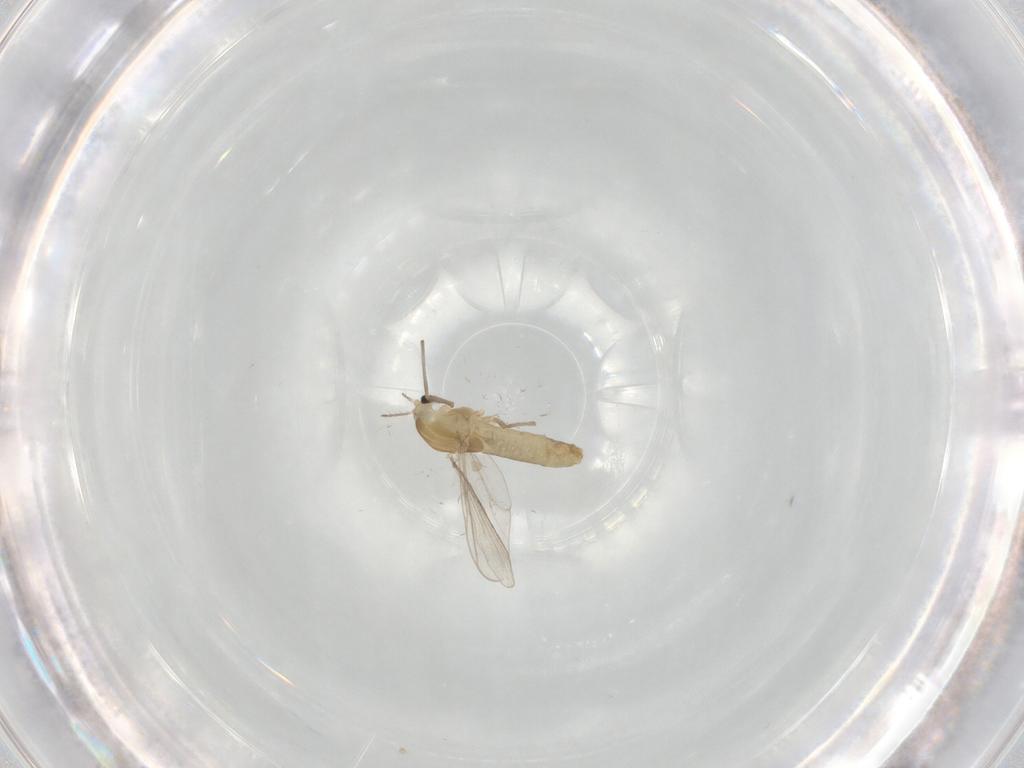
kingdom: Animalia
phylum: Arthropoda
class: Insecta
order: Diptera
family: Chironomidae
